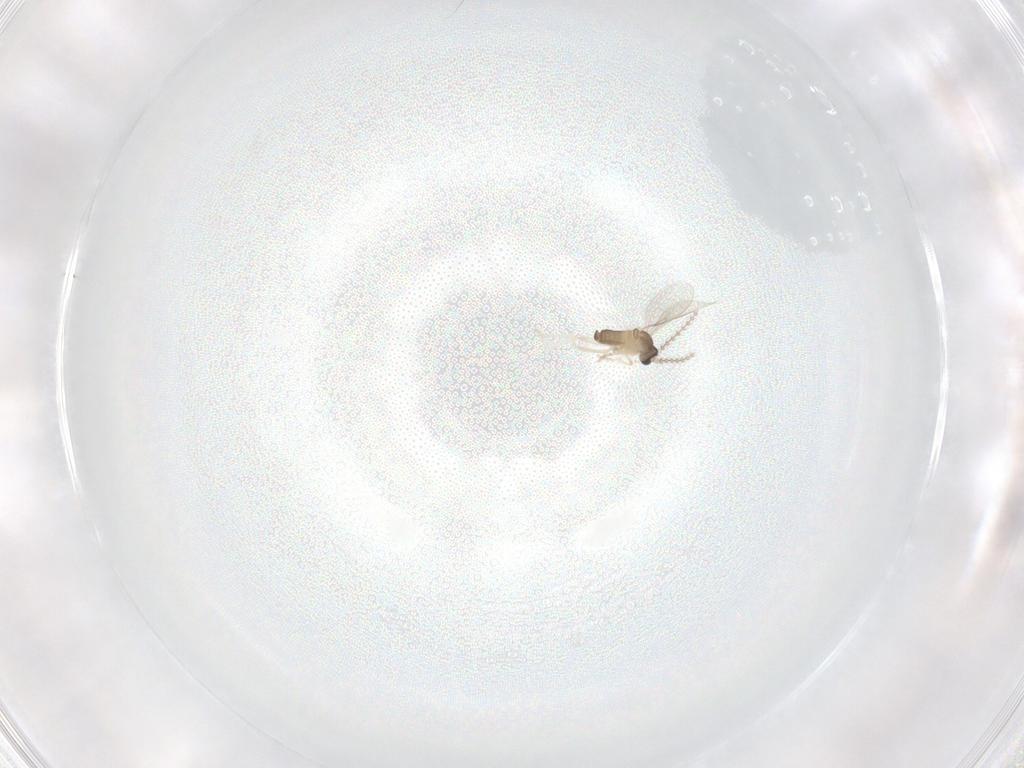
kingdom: Animalia
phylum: Arthropoda
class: Insecta
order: Diptera
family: Cecidomyiidae
